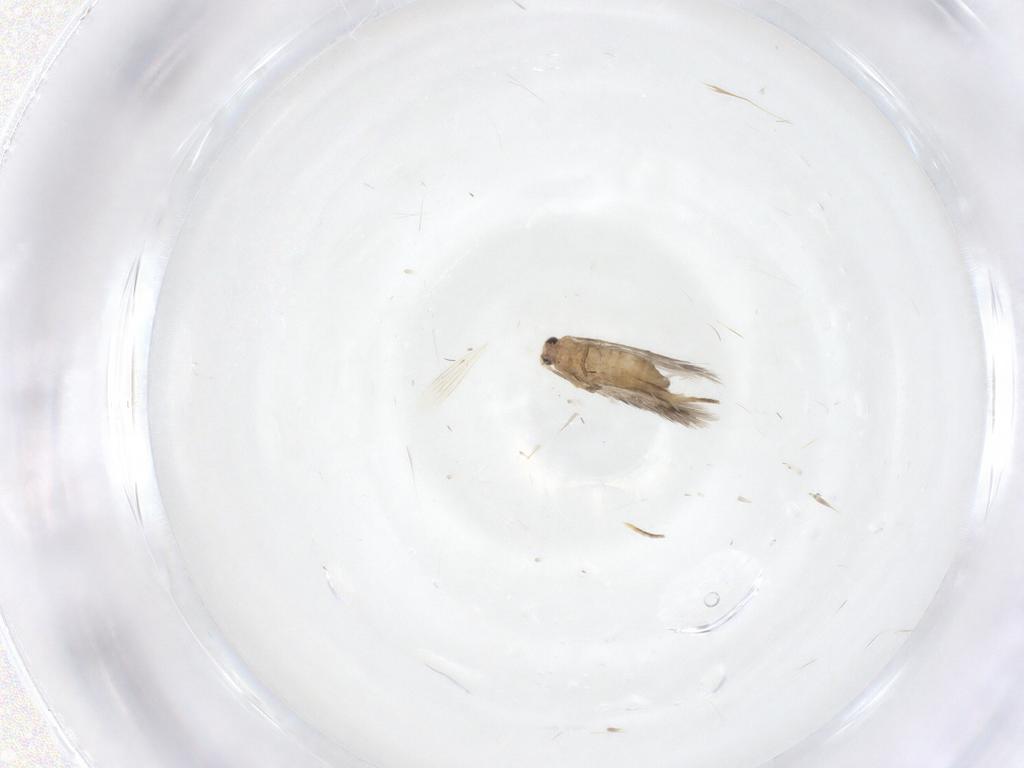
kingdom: Animalia
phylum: Arthropoda
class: Insecta
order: Lepidoptera
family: Nepticulidae
